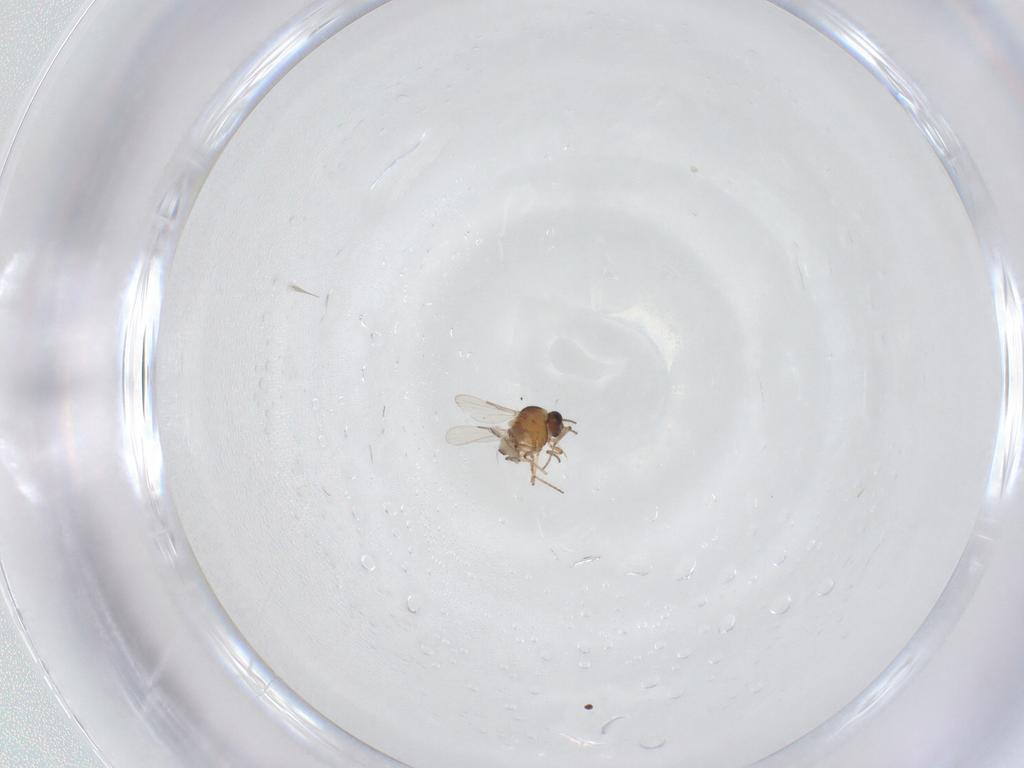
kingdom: Animalia
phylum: Arthropoda
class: Insecta
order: Diptera
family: Ceratopogonidae
